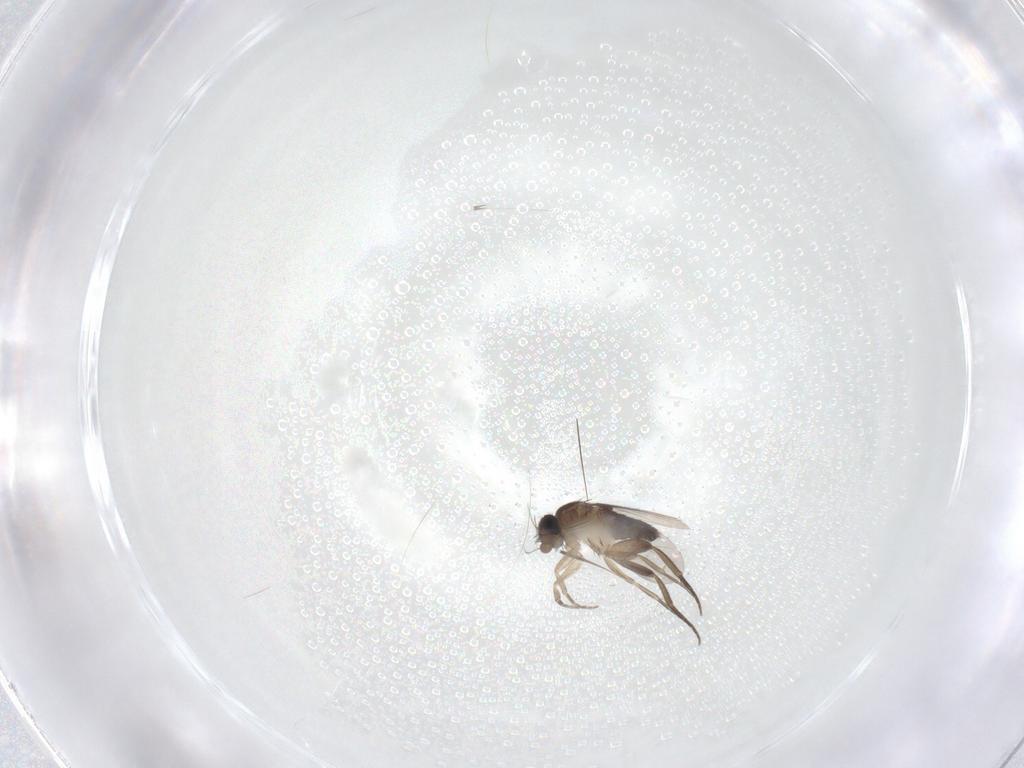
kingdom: Animalia
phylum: Arthropoda
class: Insecta
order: Diptera
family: Phoridae
